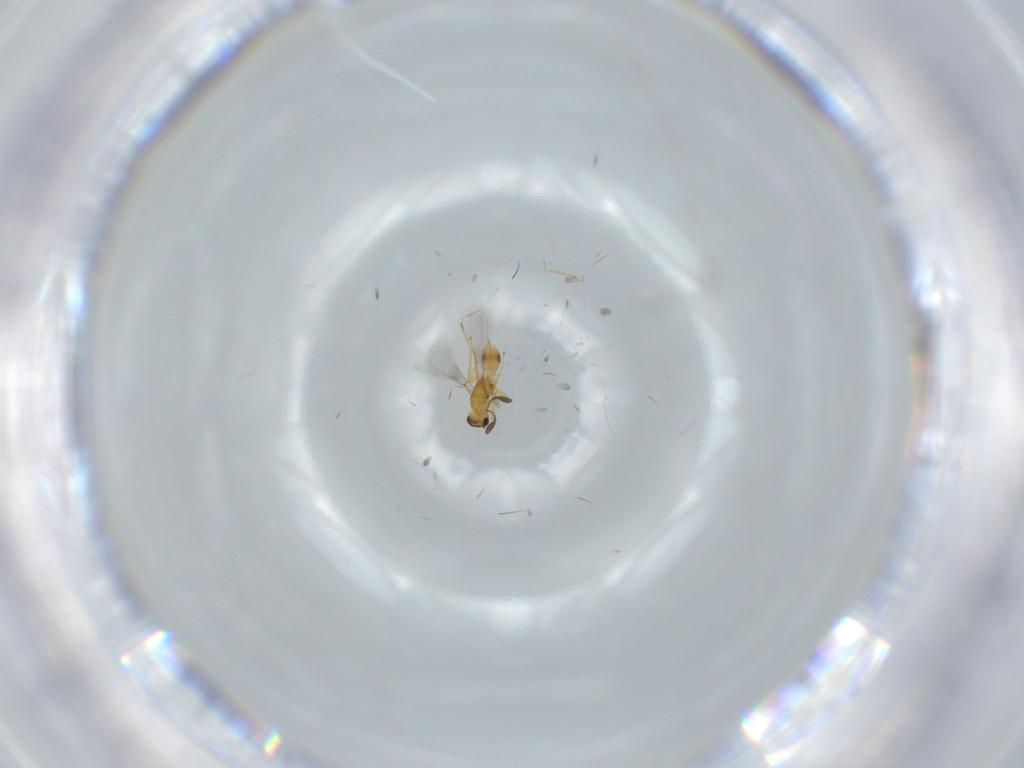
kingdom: Animalia
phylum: Arthropoda
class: Insecta
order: Hymenoptera
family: Mymaridae
